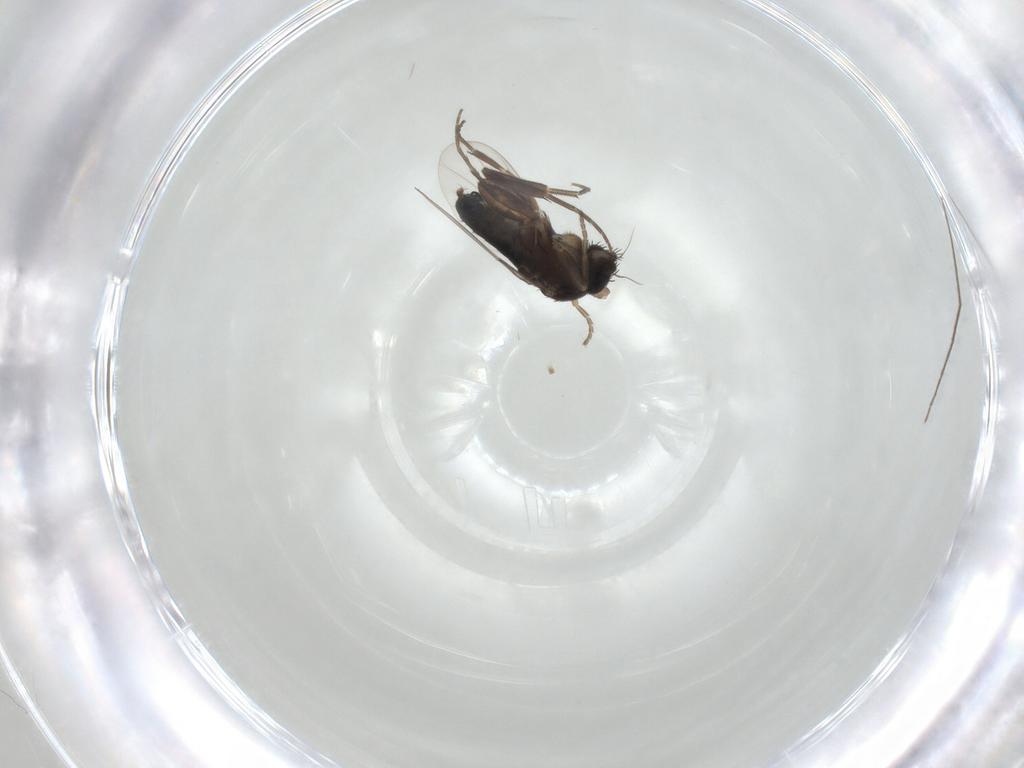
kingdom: Animalia
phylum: Arthropoda
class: Insecta
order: Diptera
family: Phoridae
